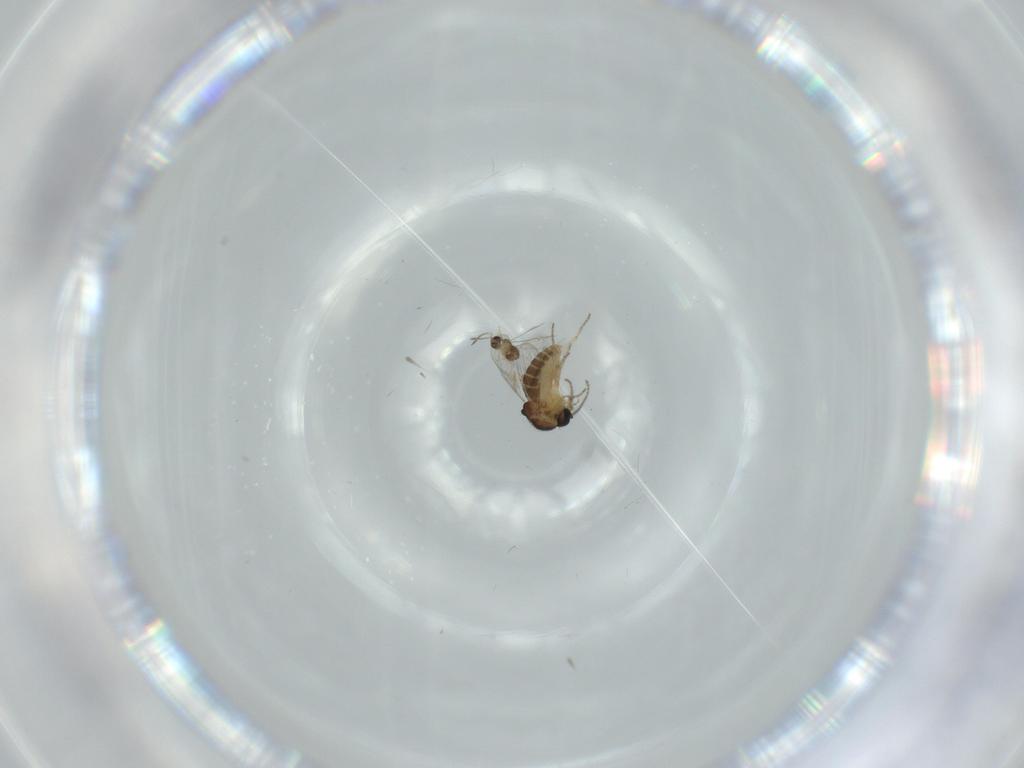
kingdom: Animalia
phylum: Arthropoda
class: Insecta
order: Diptera
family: Ceratopogonidae
